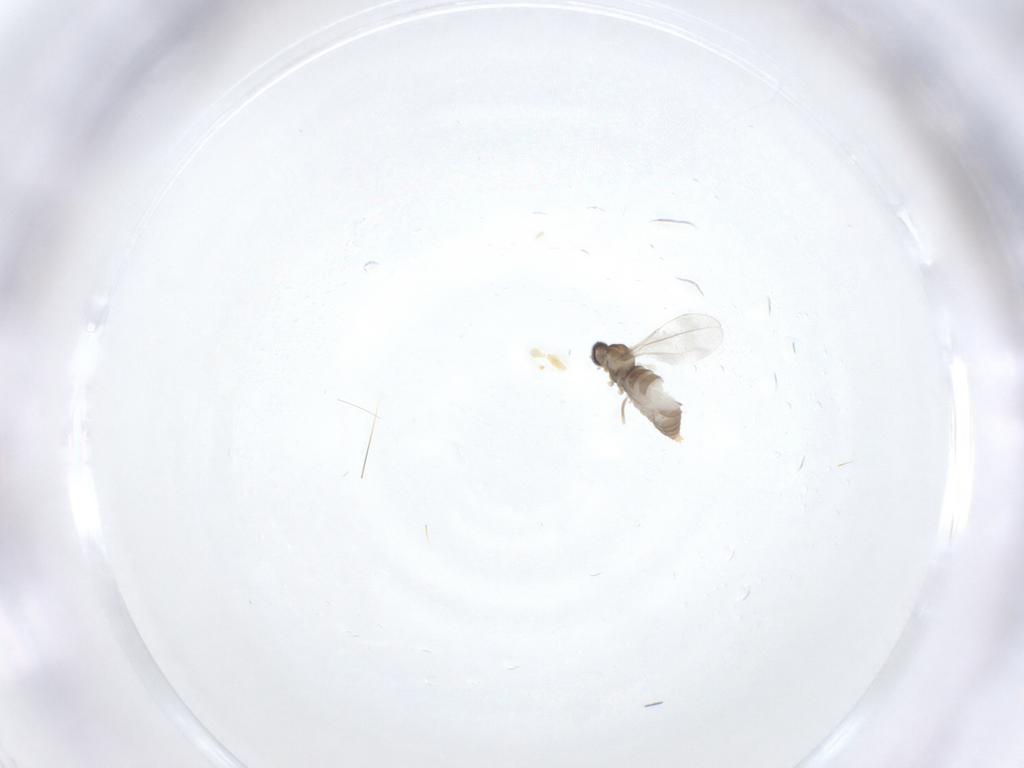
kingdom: Animalia
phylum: Arthropoda
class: Insecta
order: Diptera
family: Cecidomyiidae
